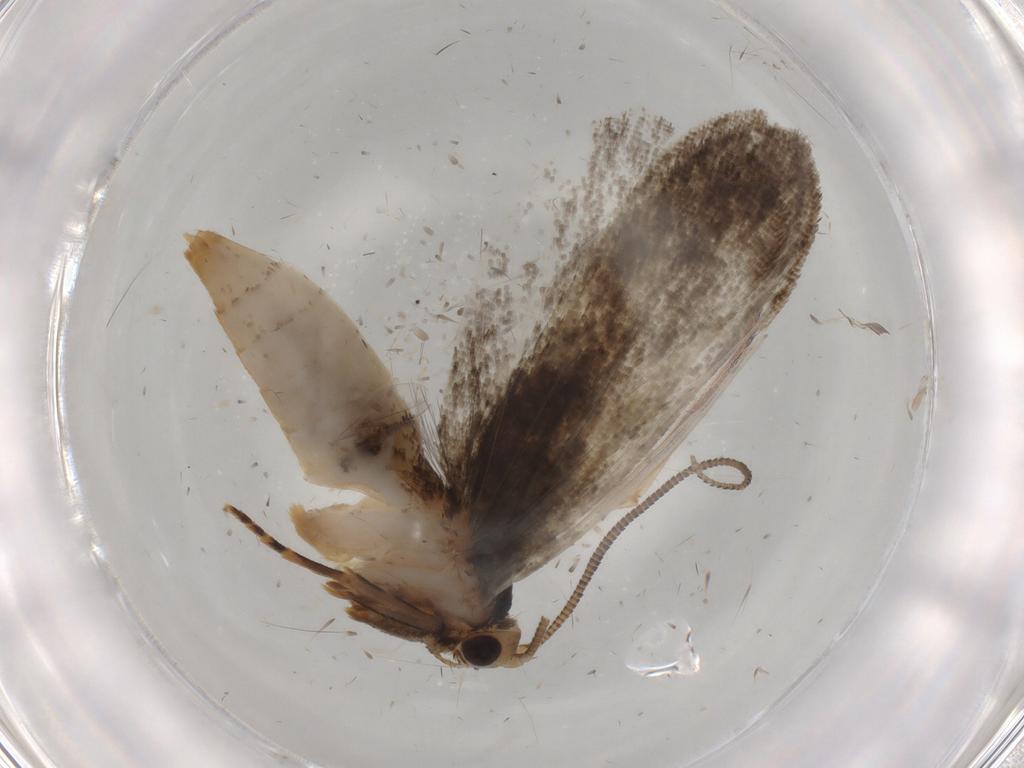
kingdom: Animalia
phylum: Arthropoda
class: Insecta
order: Lepidoptera
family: Tineidae
